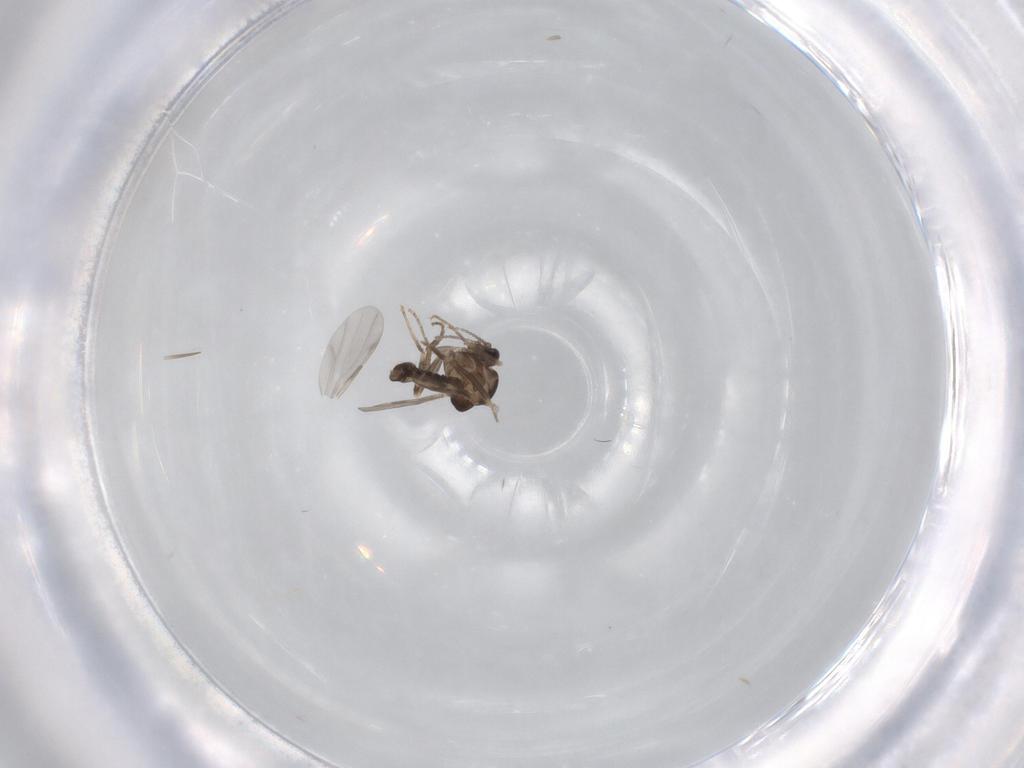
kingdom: Animalia
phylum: Arthropoda
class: Insecta
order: Diptera
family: Ceratopogonidae
